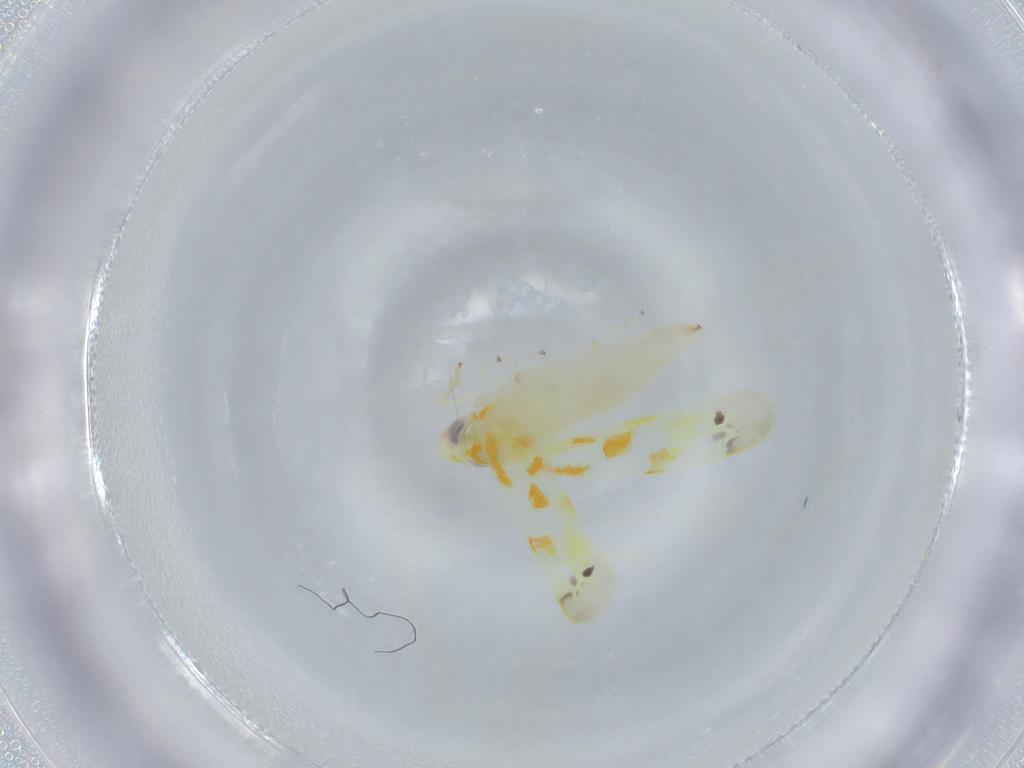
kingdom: Animalia
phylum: Arthropoda
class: Insecta
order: Hemiptera
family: Cicadellidae
